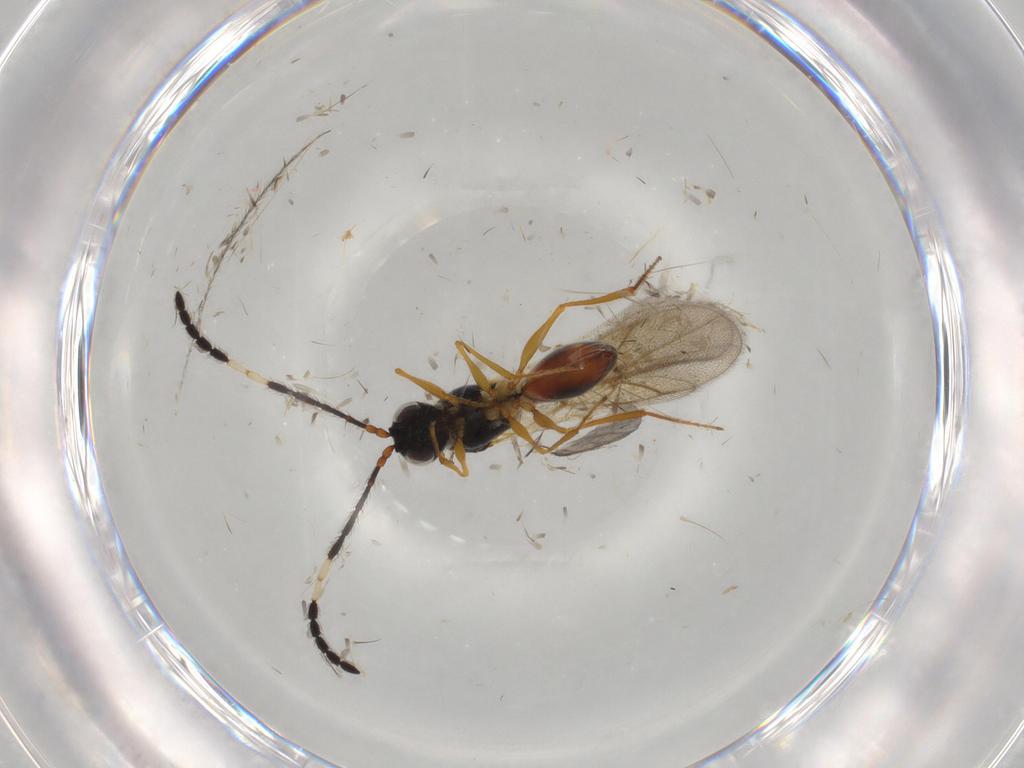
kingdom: Animalia
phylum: Arthropoda
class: Insecta
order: Hymenoptera
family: Figitidae
